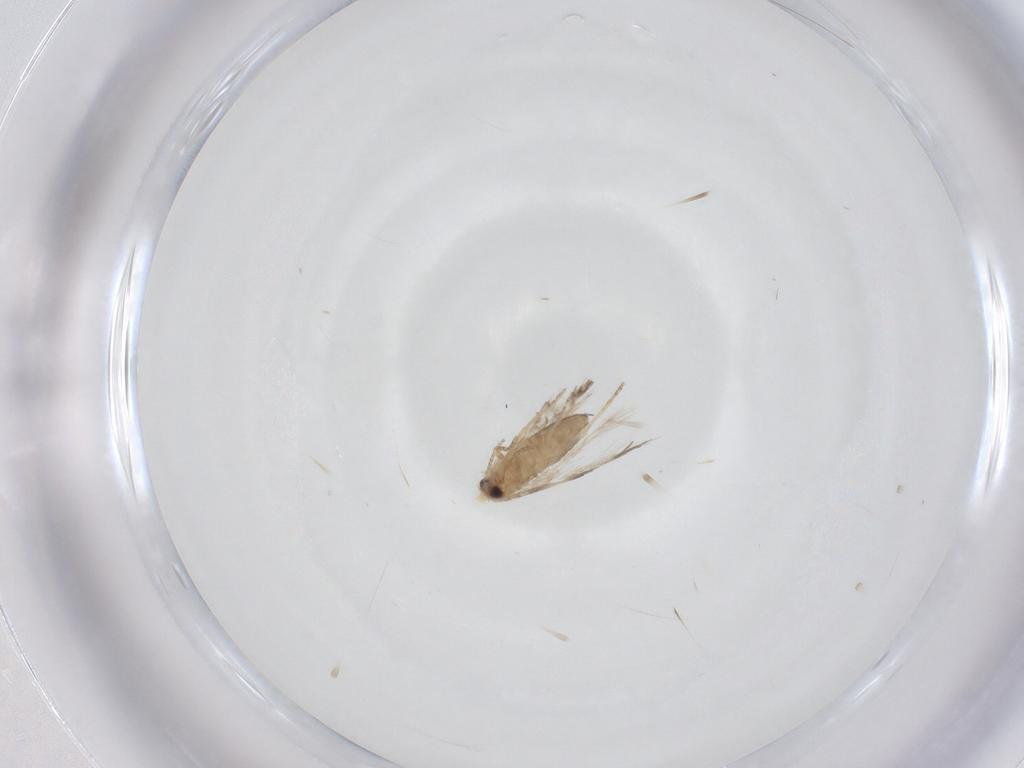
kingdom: Animalia
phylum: Arthropoda
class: Insecta
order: Lepidoptera
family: Nepticulidae
